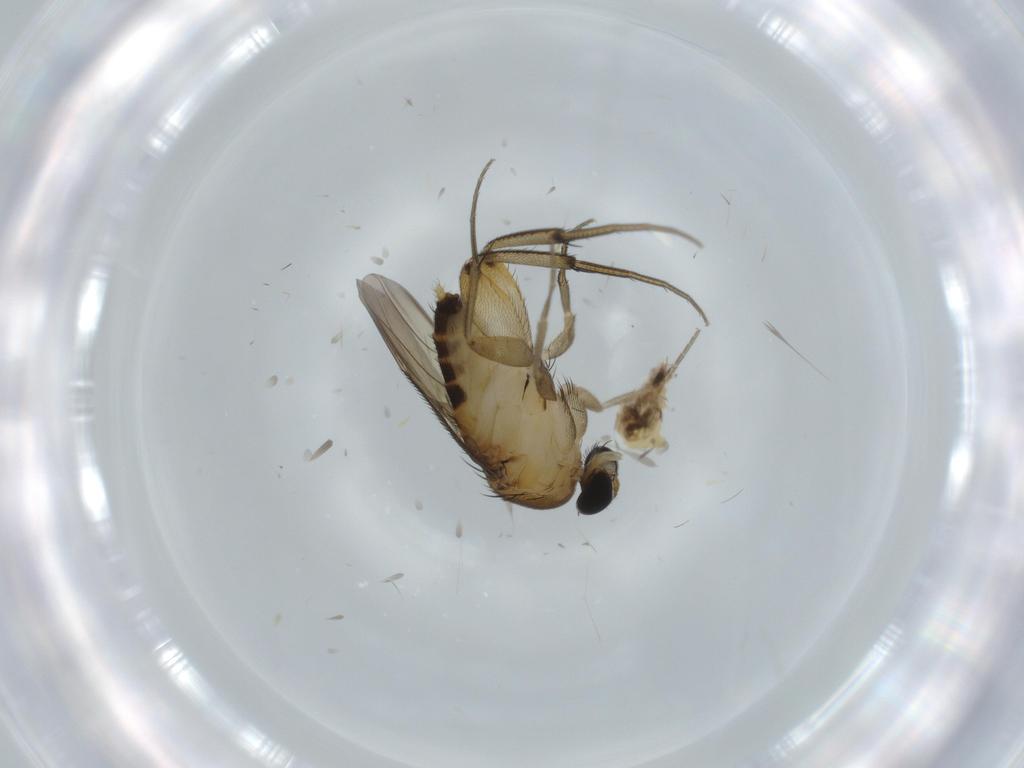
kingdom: Animalia
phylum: Arthropoda
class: Insecta
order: Diptera
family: Phoridae
